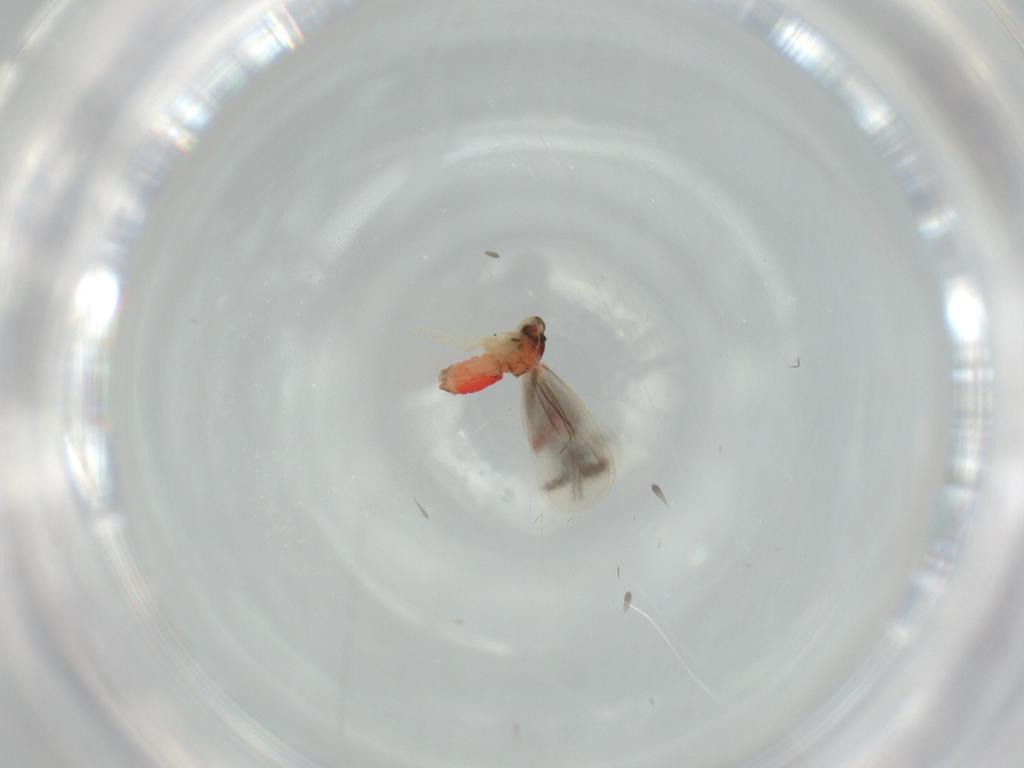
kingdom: Animalia
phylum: Arthropoda
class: Insecta
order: Hemiptera
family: Aleyrodidae
